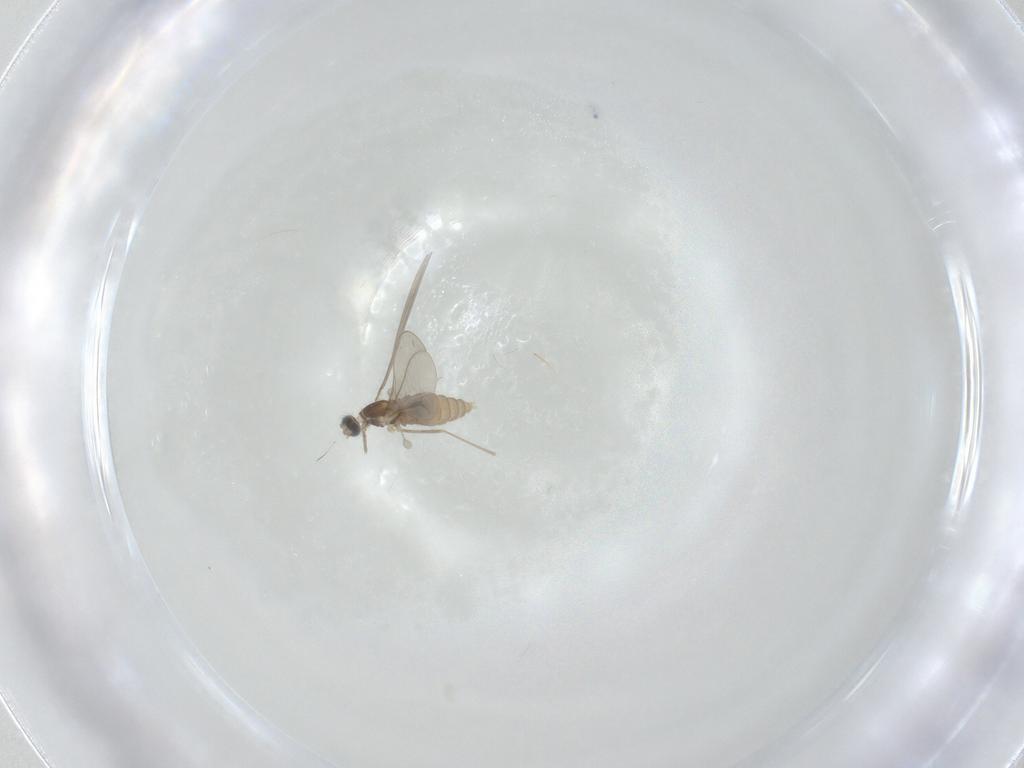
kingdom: Animalia
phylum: Arthropoda
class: Insecta
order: Diptera
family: Cecidomyiidae
